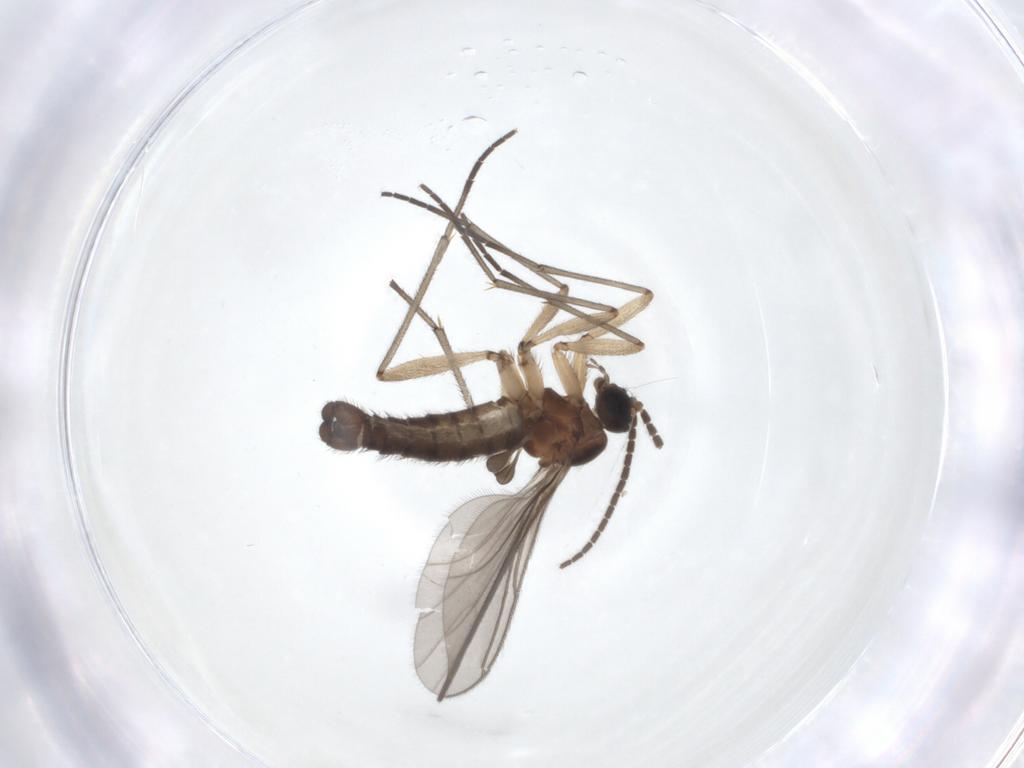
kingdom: Animalia
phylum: Arthropoda
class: Insecta
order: Diptera
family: Sciaridae
